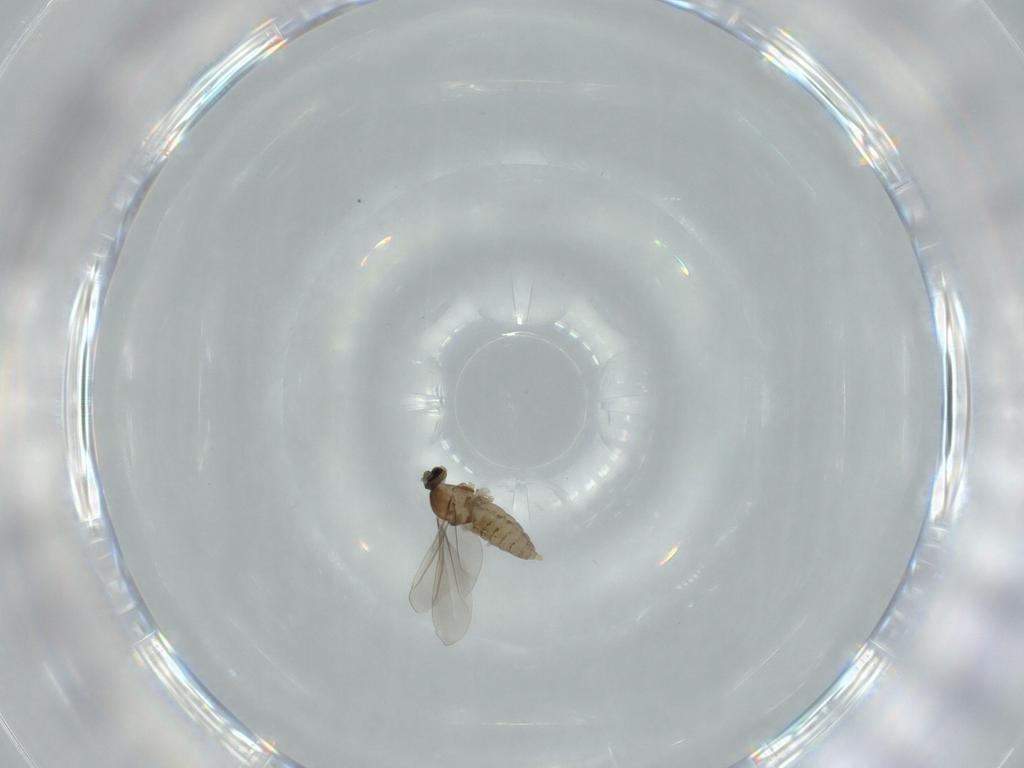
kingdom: Animalia
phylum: Arthropoda
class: Insecta
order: Diptera
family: Cecidomyiidae
